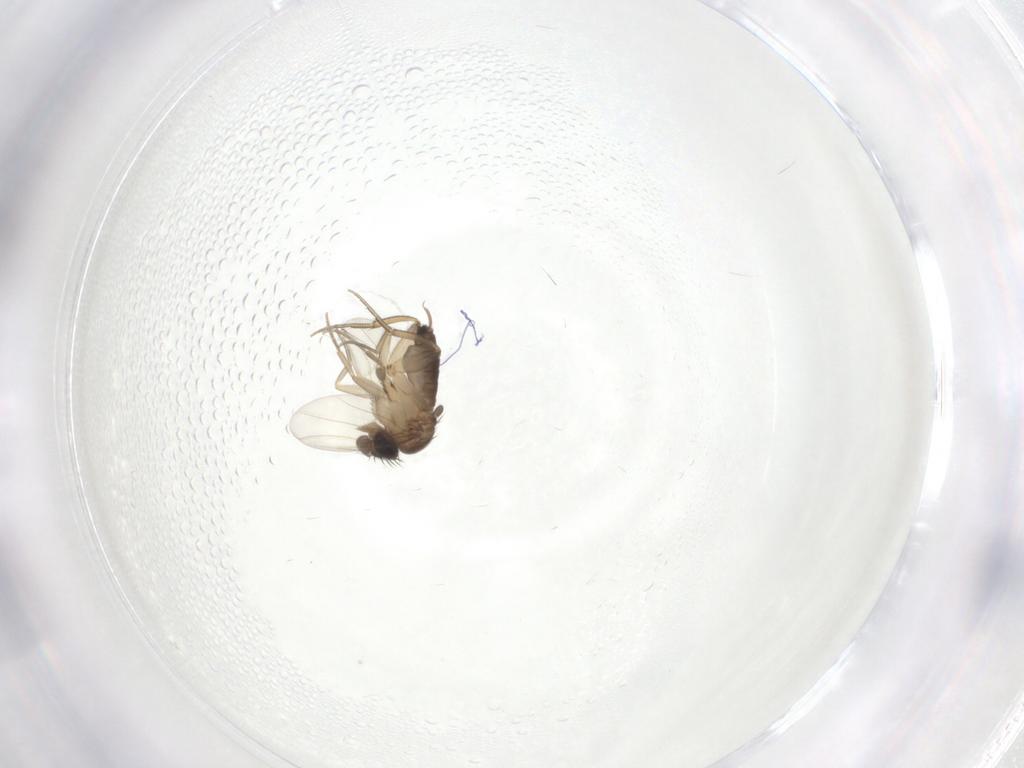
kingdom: Animalia
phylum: Arthropoda
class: Insecta
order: Diptera
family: Phoridae
